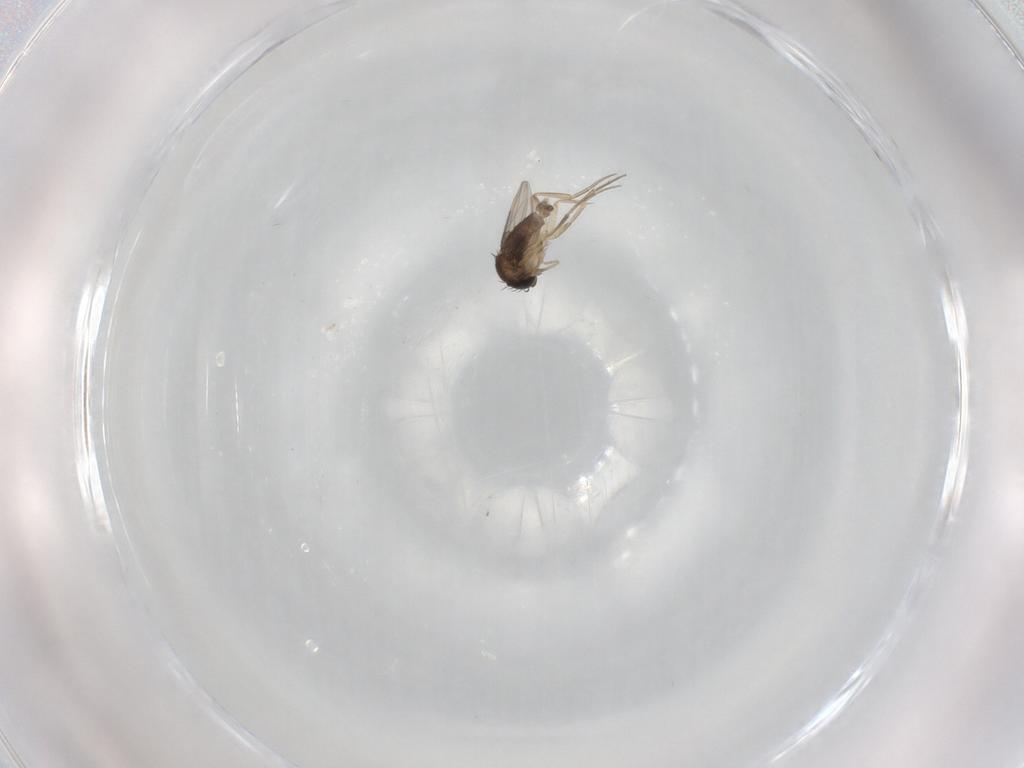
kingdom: Animalia
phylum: Arthropoda
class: Insecta
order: Diptera
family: Phoridae
